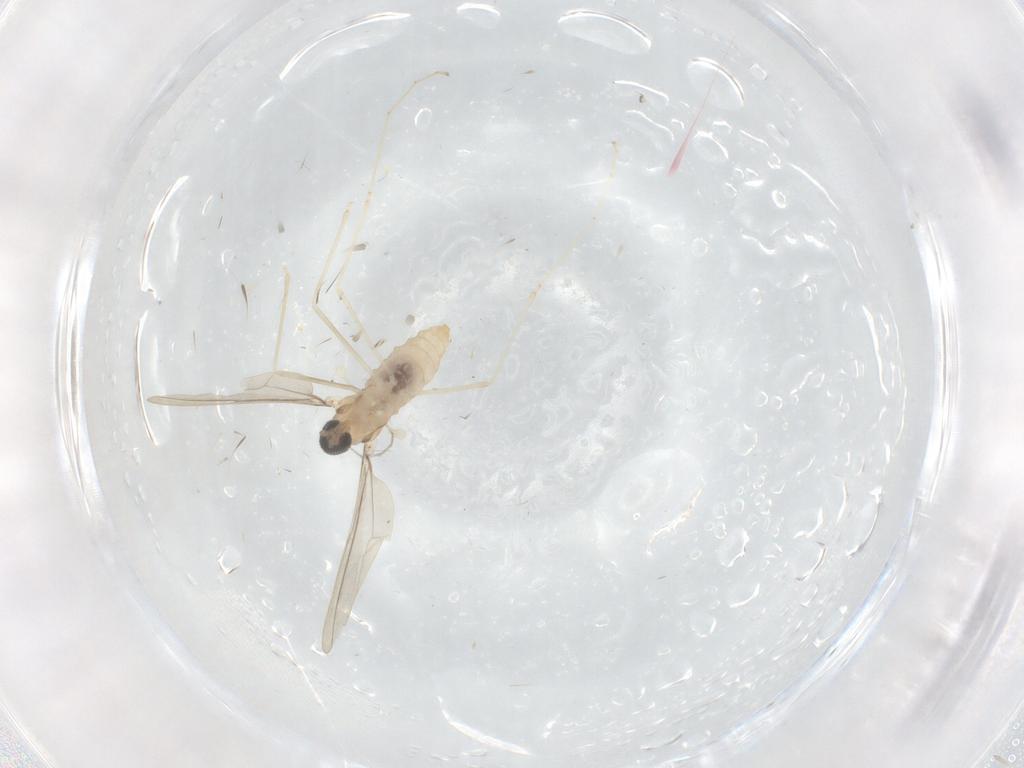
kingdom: Animalia
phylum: Arthropoda
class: Insecta
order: Diptera
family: Cecidomyiidae
